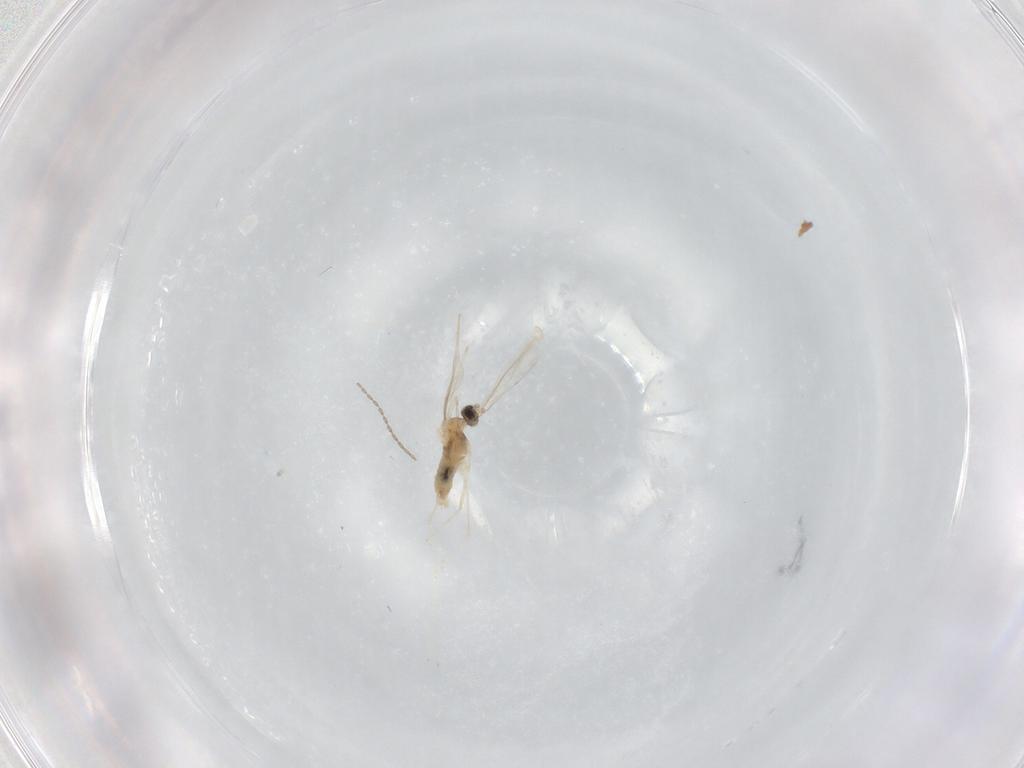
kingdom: Animalia
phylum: Arthropoda
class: Insecta
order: Diptera
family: Cecidomyiidae
